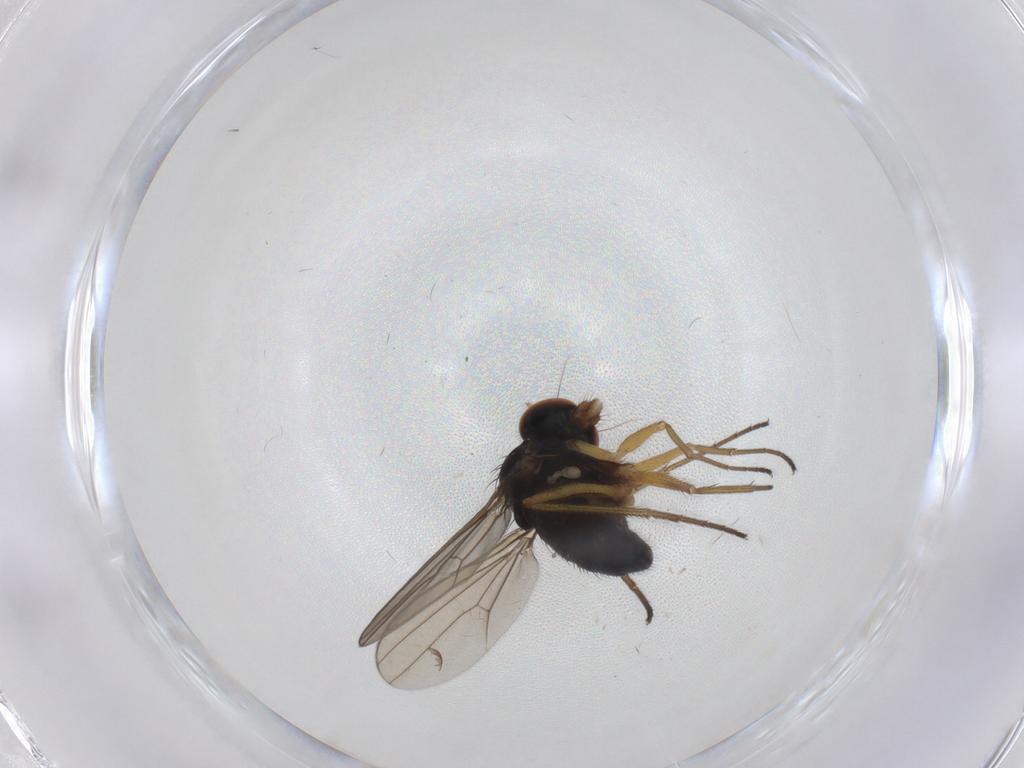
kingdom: Animalia
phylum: Arthropoda
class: Insecta
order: Diptera
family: Dolichopodidae
